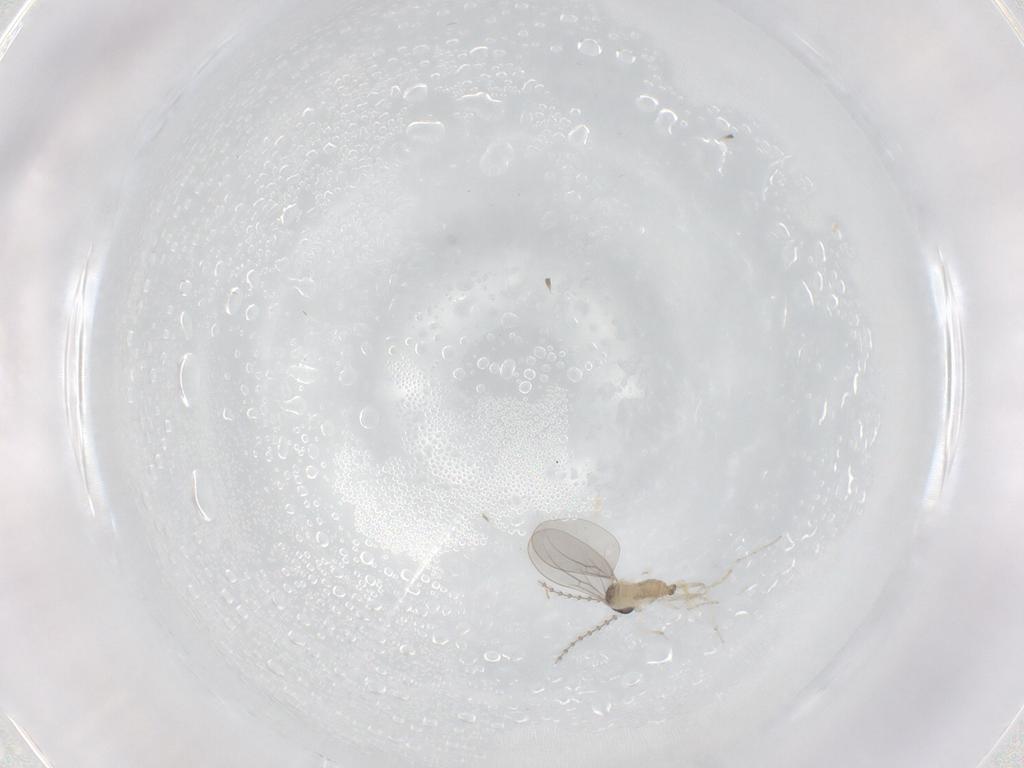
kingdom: Animalia
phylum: Arthropoda
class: Insecta
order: Diptera
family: Cecidomyiidae
